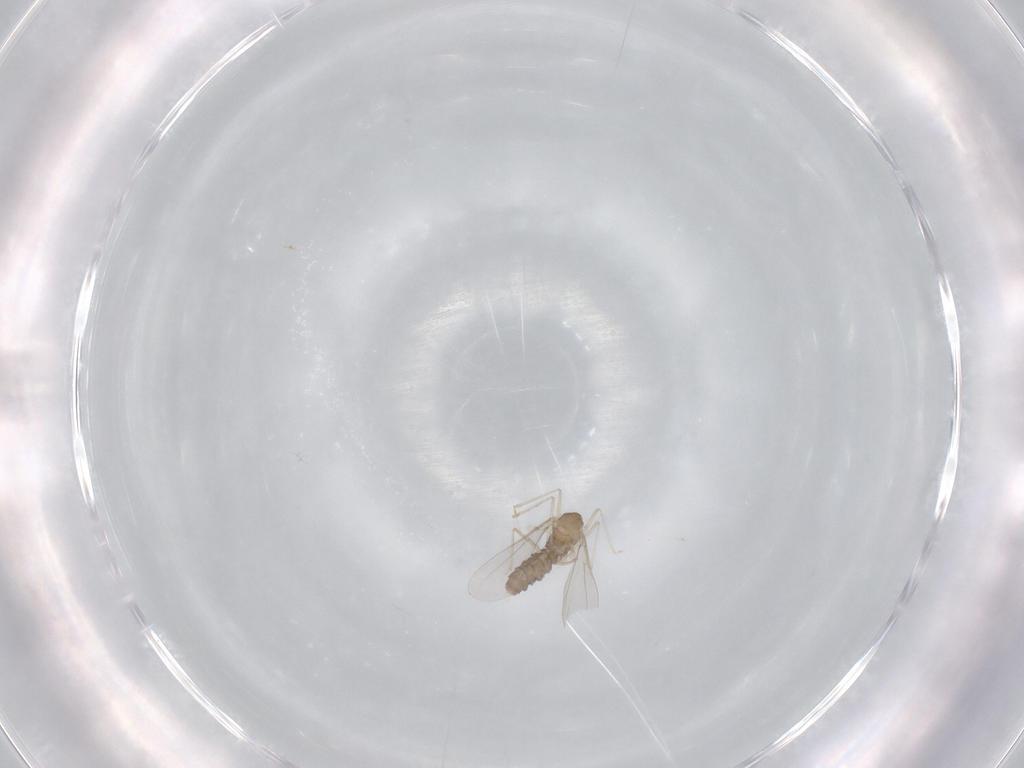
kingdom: Animalia
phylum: Arthropoda
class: Insecta
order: Diptera
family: Cecidomyiidae
